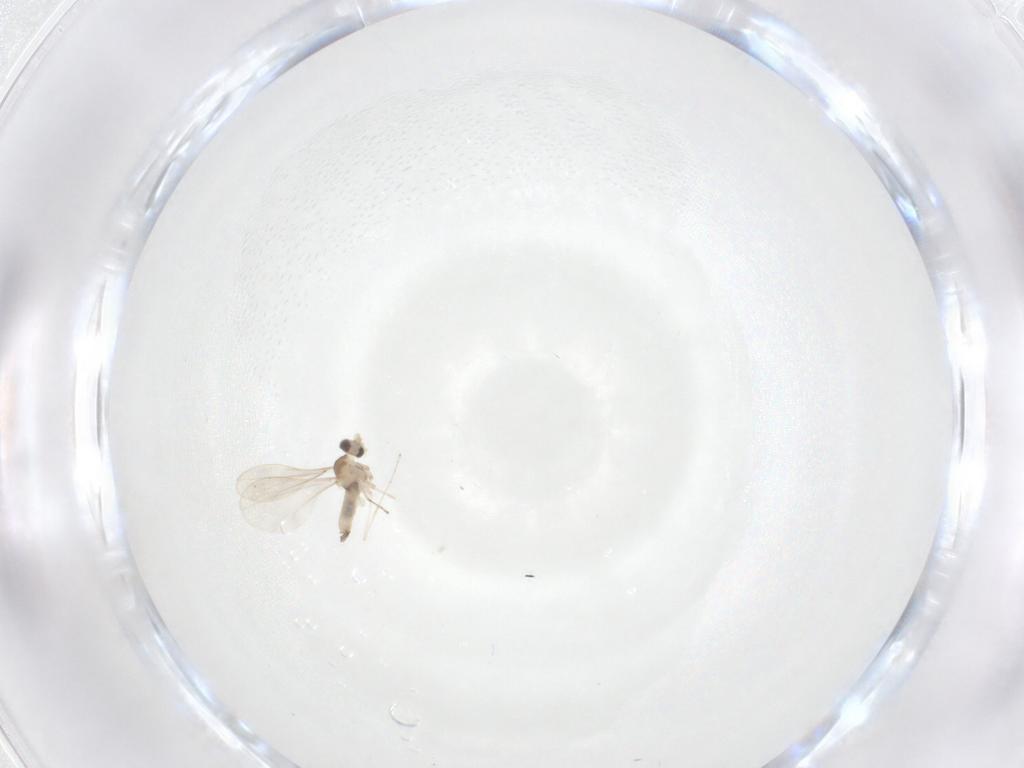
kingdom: Animalia
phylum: Arthropoda
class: Insecta
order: Diptera
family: Cecidomyiidae
